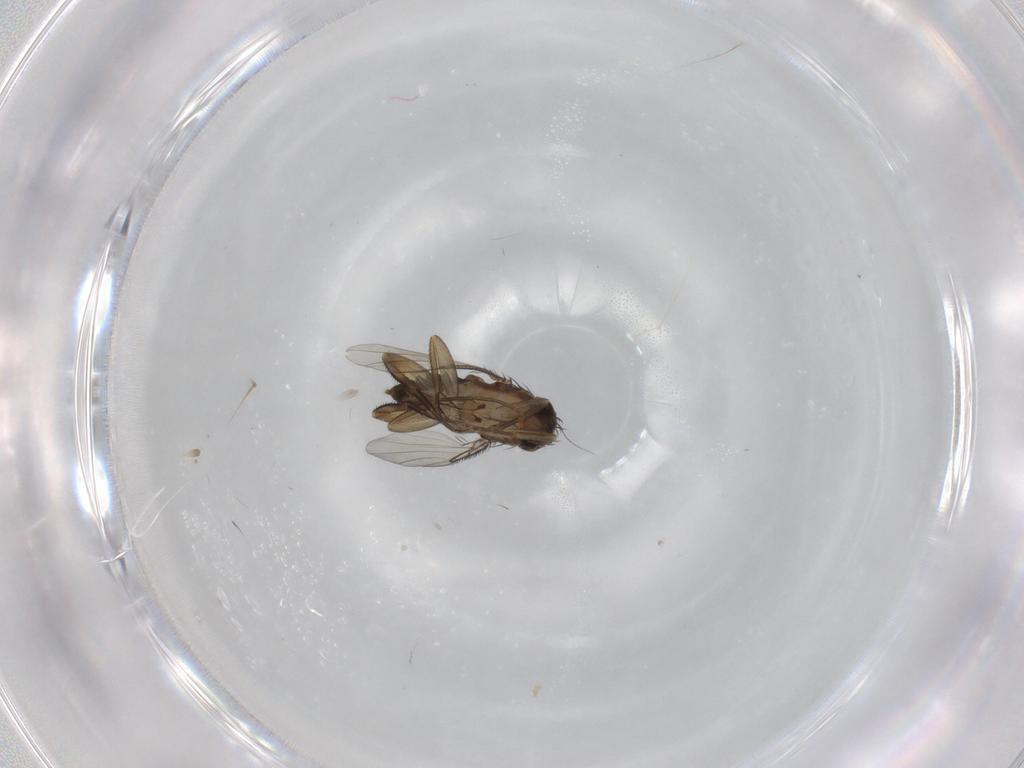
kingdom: Animalia
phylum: Arthropoda
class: Insecta
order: Diptera
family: Phoridae
